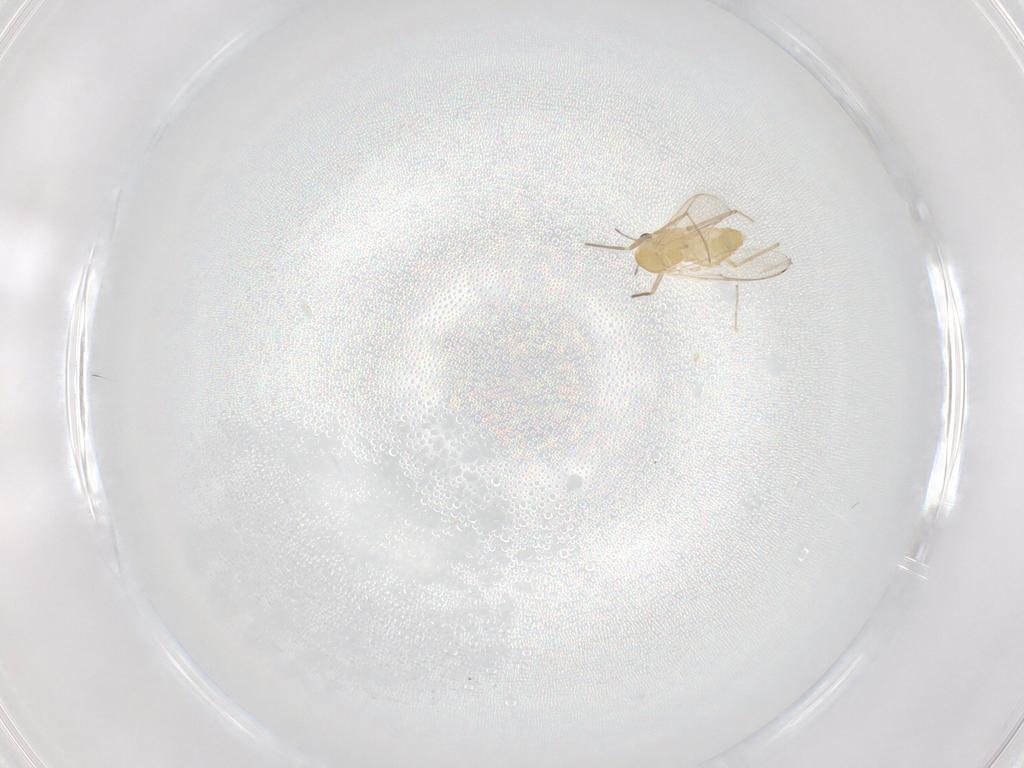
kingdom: Animalia
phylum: Arthropoda
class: Insecta
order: Diptera
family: Chironomidae
